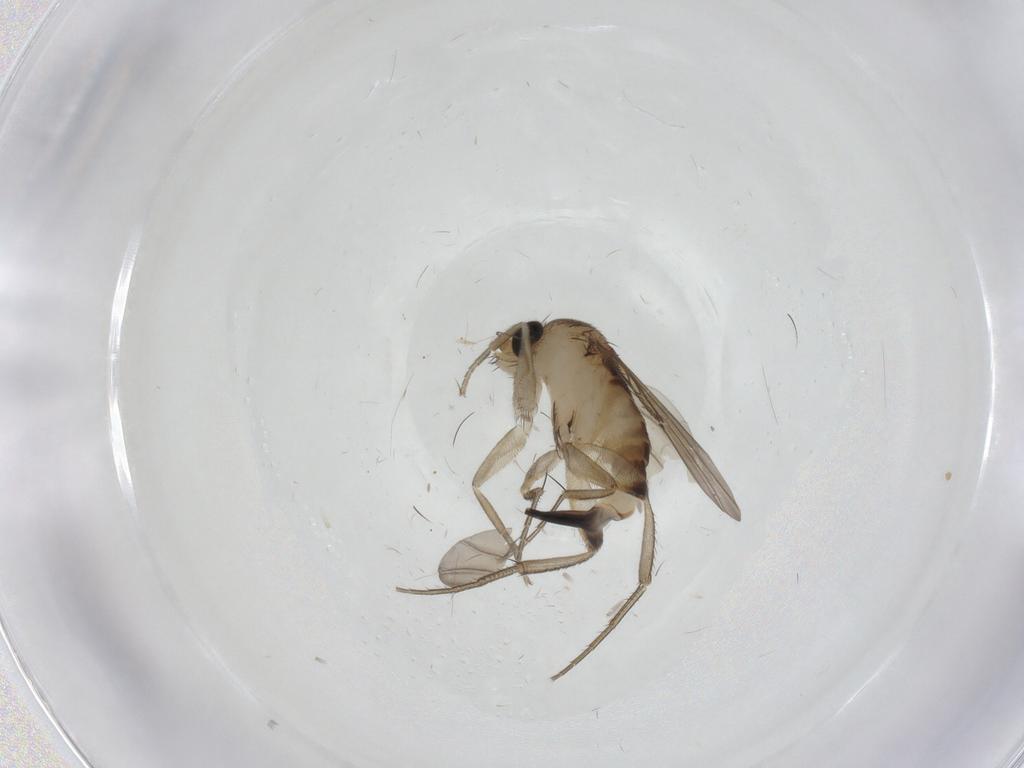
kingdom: Animalia
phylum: Arthropoda
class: Insecta
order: Diptera
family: Phoridae
